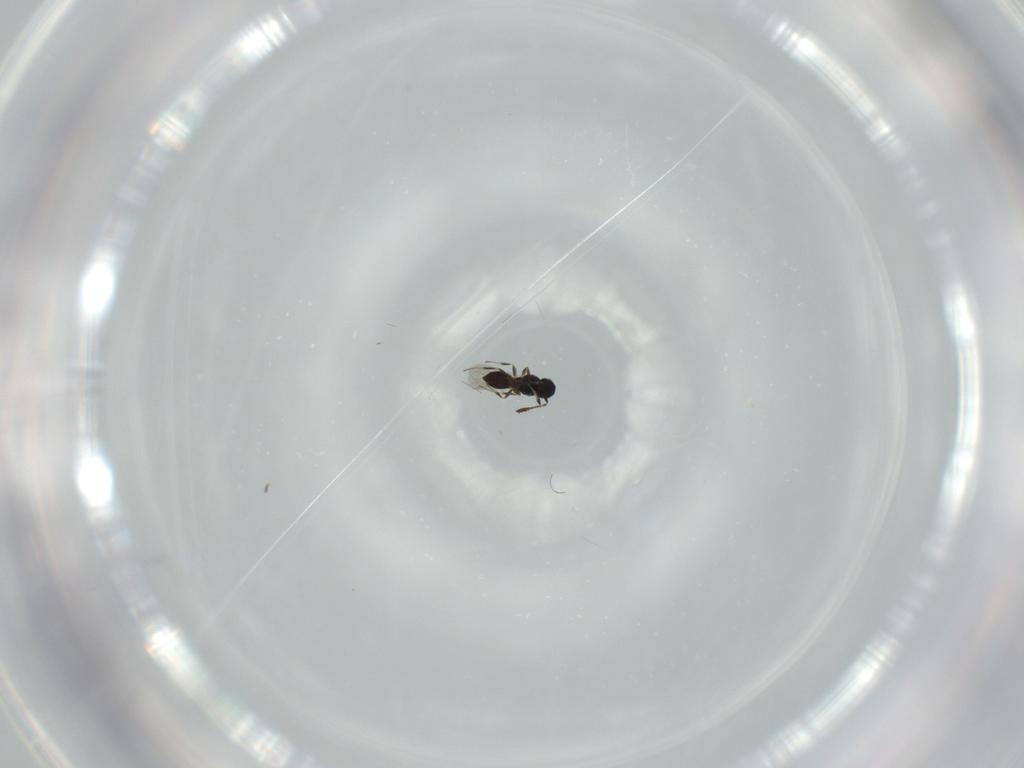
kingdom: Animalia
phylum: Arthropoda
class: Insecta
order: Hymenoptera
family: Scelionidae
